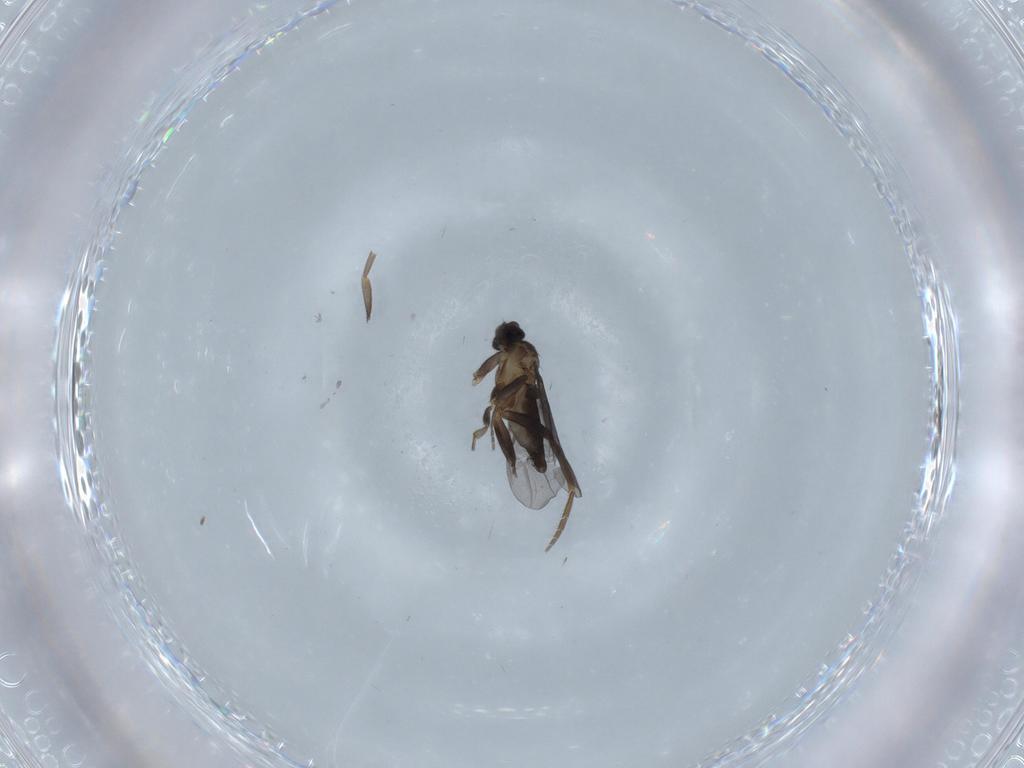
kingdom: Animalia
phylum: Arthropoda
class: Insecta
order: Diptera
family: Phoridae
